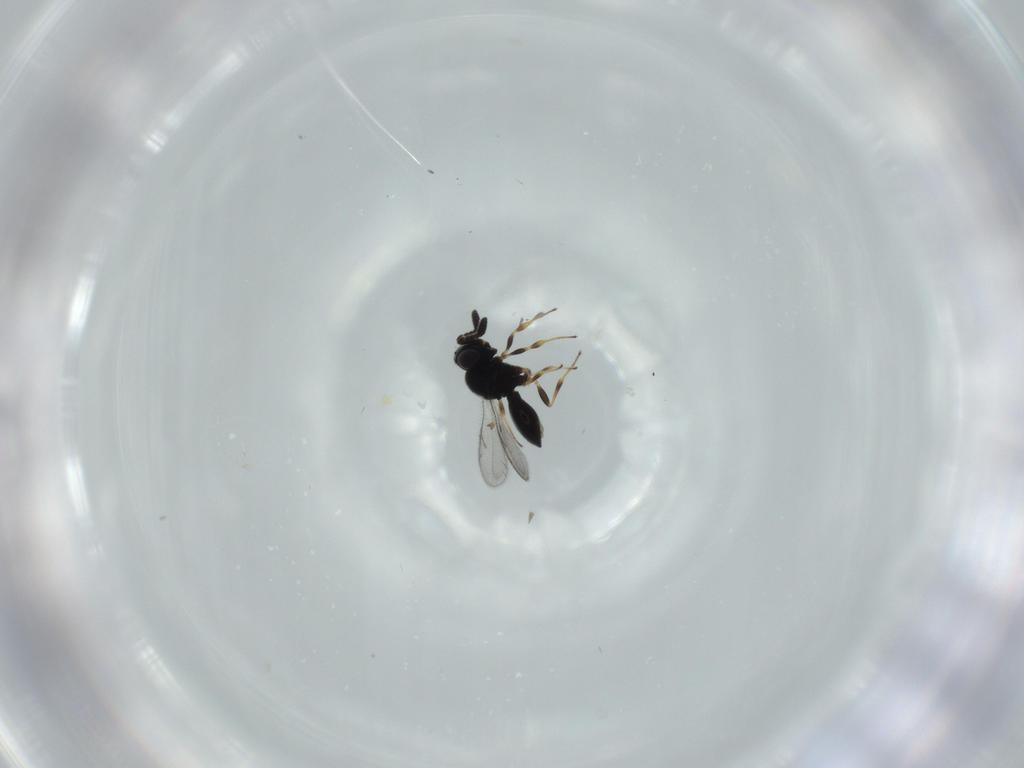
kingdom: Animalia
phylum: Arthropoda
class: Insecta
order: Hymenoptera
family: Scelionidae
